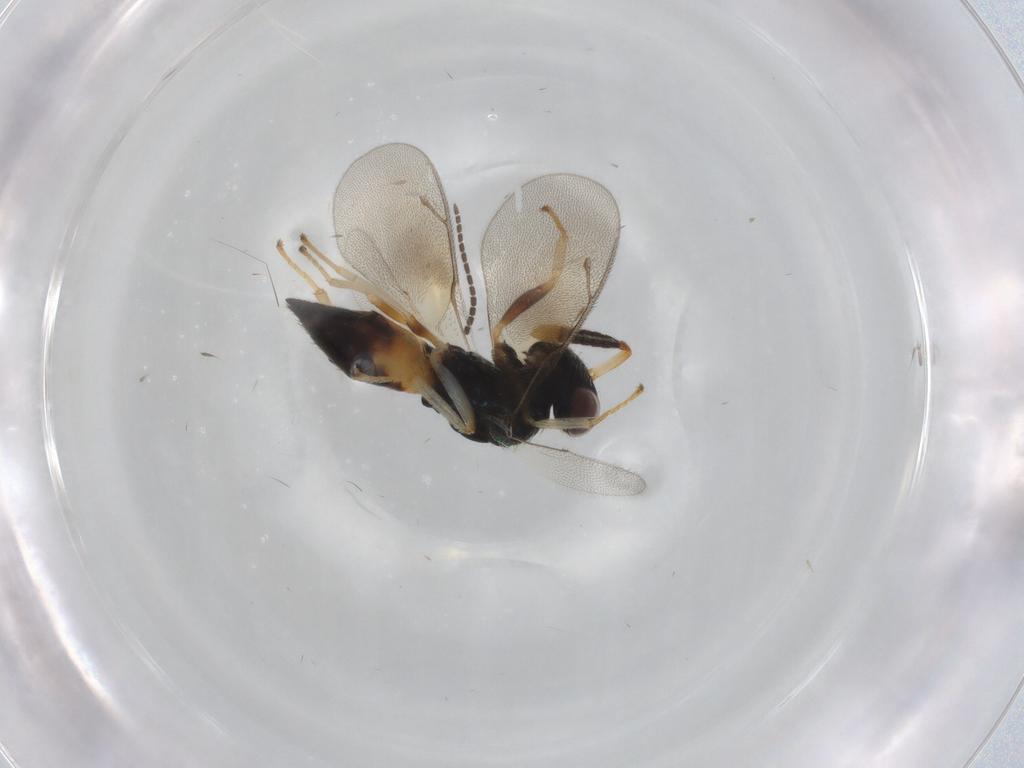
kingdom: Animalia
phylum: Arthropoda
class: Insecta
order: Hymenoptera
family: Pteromalidae
